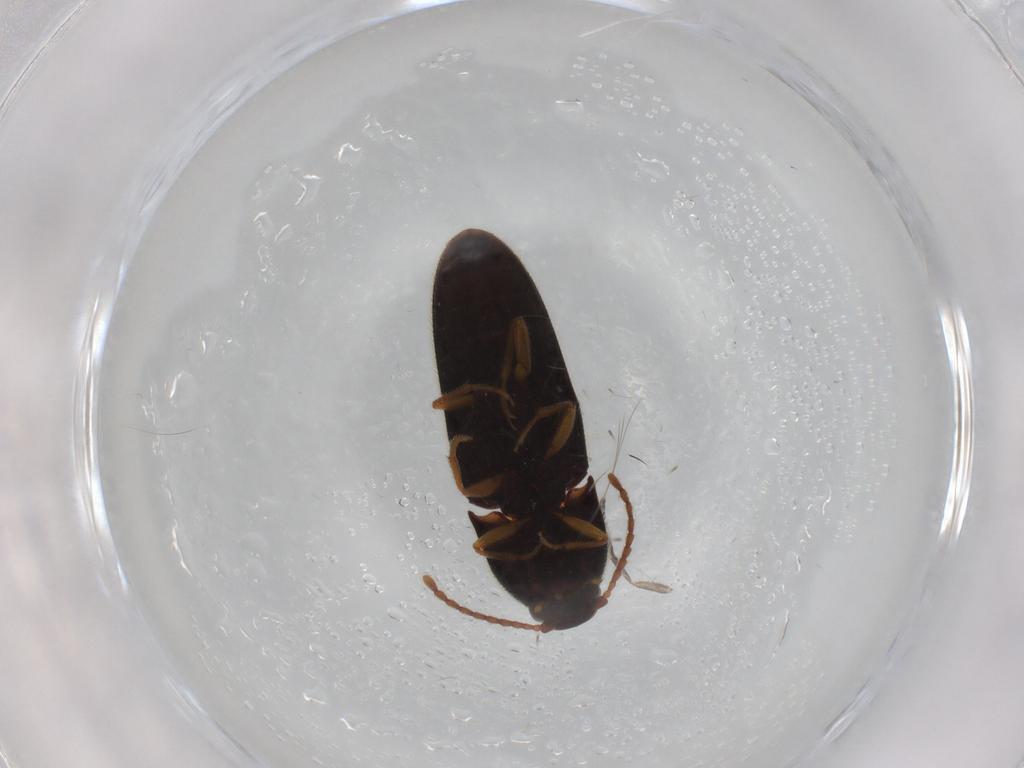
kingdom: Animalia
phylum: Arthropoda
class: Insecta
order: Coleoptera
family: Elateridae
